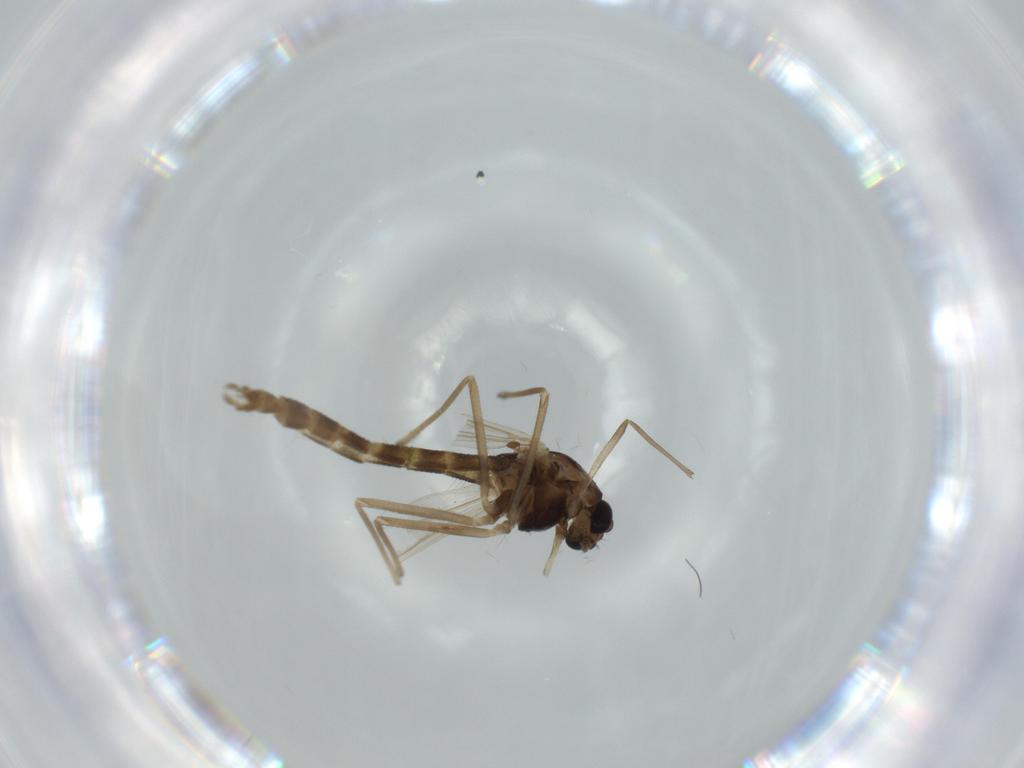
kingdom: Animalia
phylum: Arthropoda
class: Insecta
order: Diptera
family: Chironomidae
